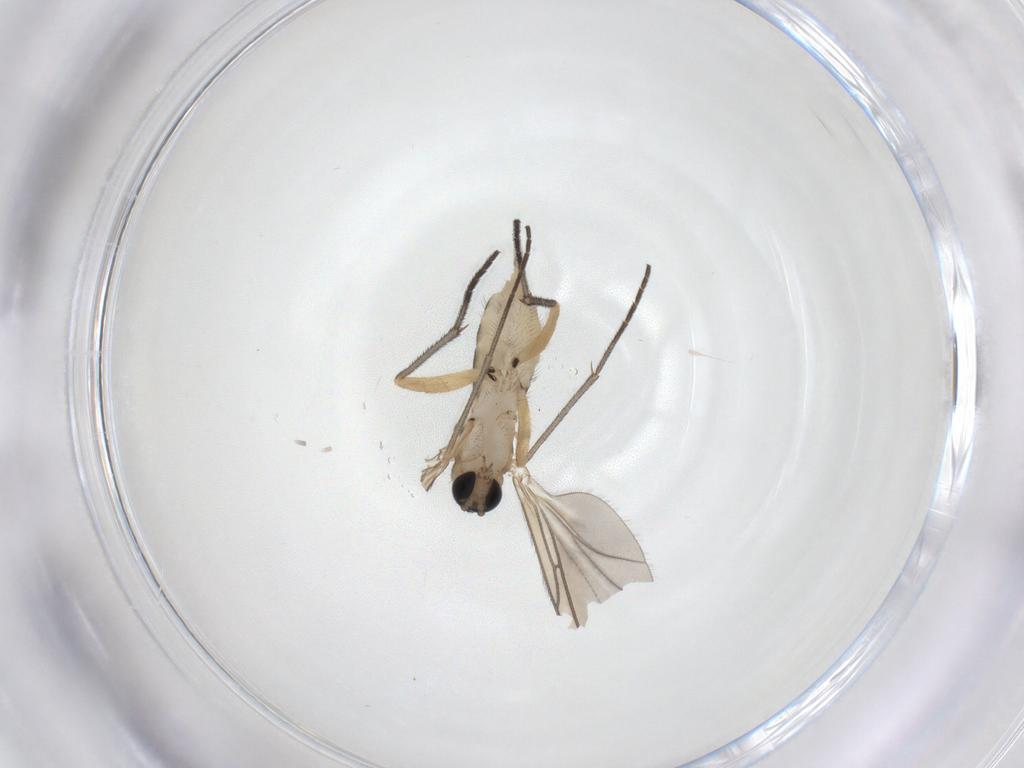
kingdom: Animalia
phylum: Arthropoda
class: Insecta
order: Diptera
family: Sciaridae
